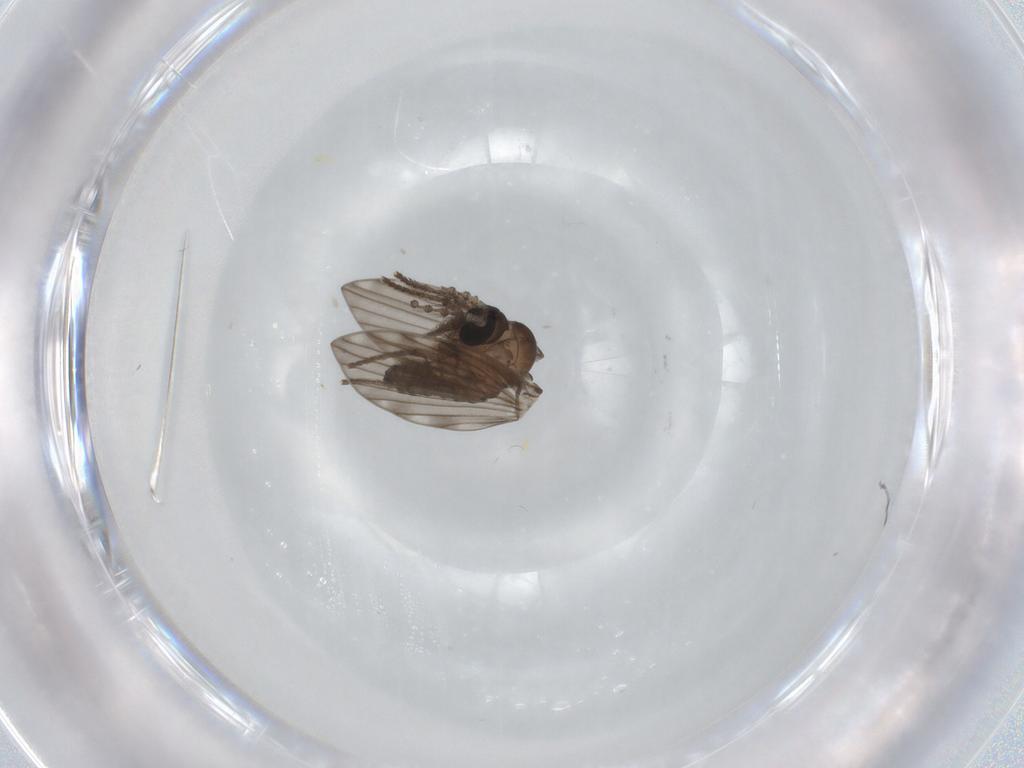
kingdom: Animalia
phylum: Arthropoda
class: Insecta
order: Diptera
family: Psychodidae
